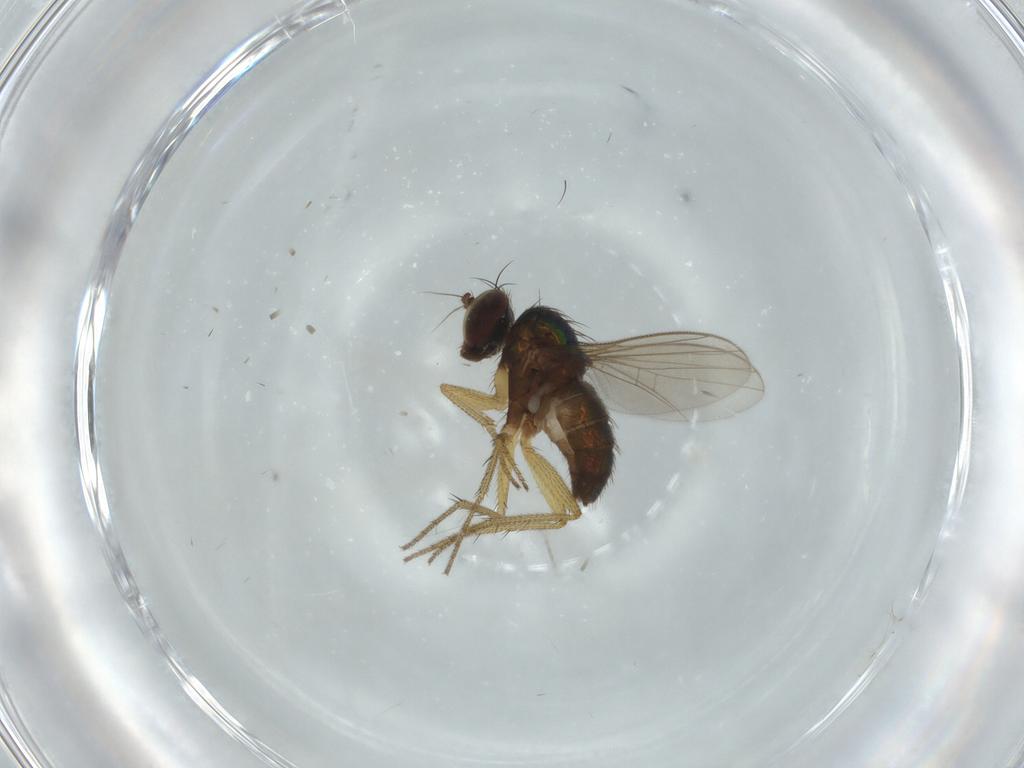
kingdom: Animalia
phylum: Arthropoda
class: Insecta
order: Diptera
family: Dolichopodidae
